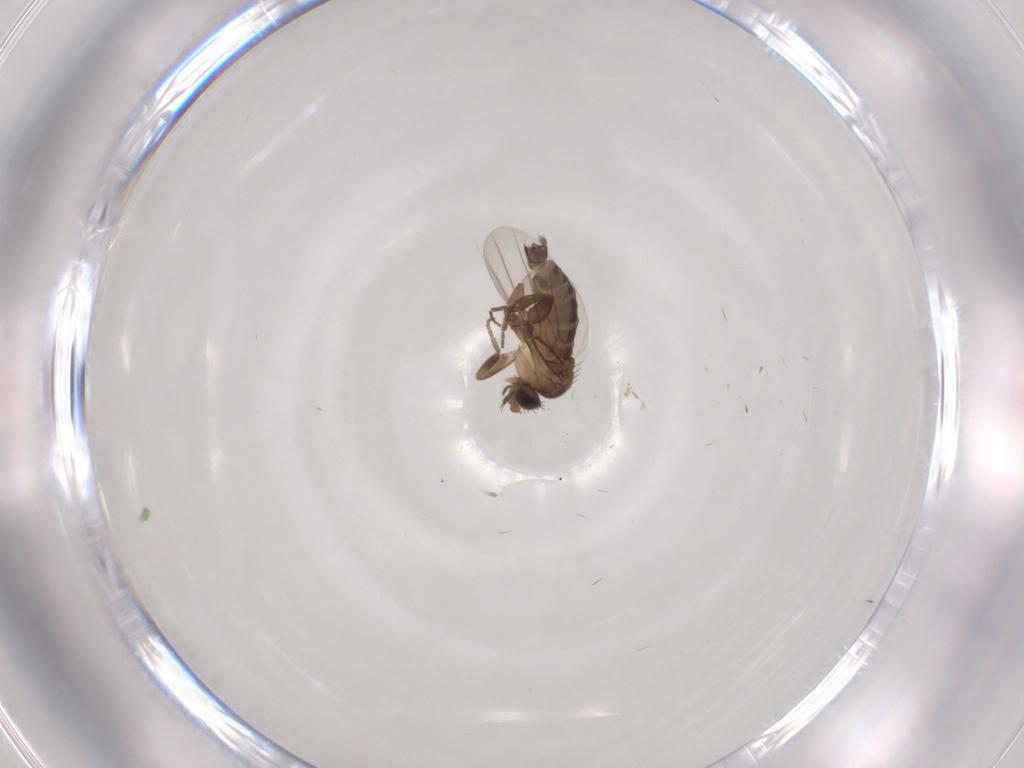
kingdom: Animalia
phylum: Arthropoda
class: Insecta
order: Diptera
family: Phoridae
